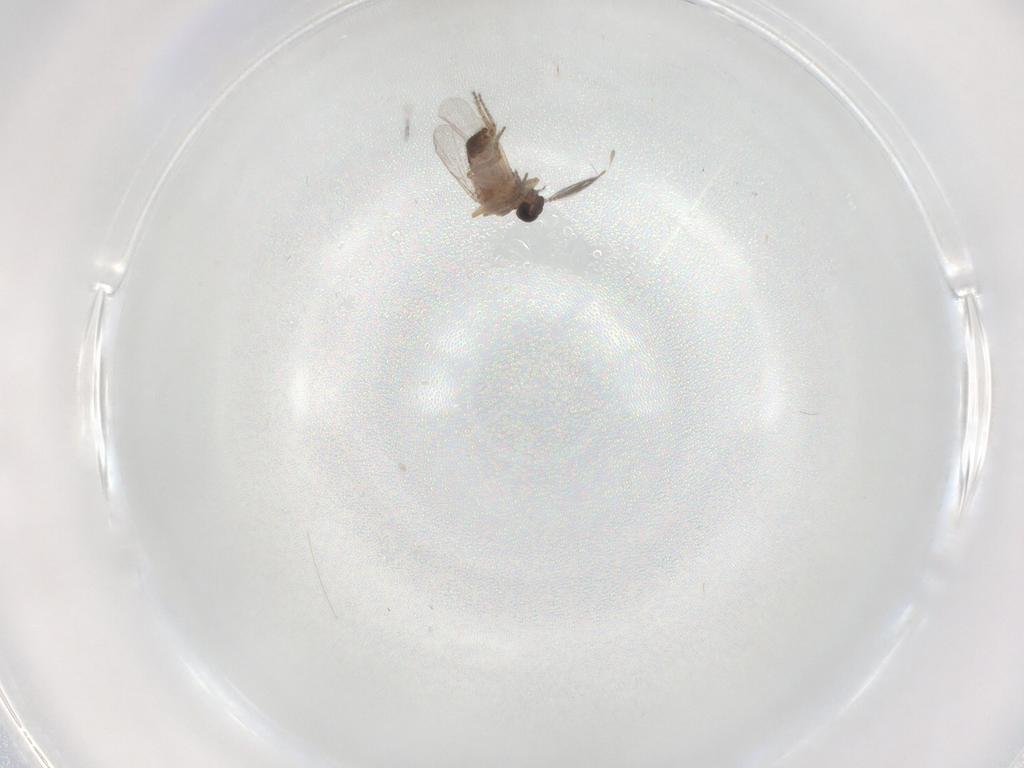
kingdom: Animalia
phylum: Arthropoda
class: Insecta
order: Diptera
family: Ceratopogonidae
